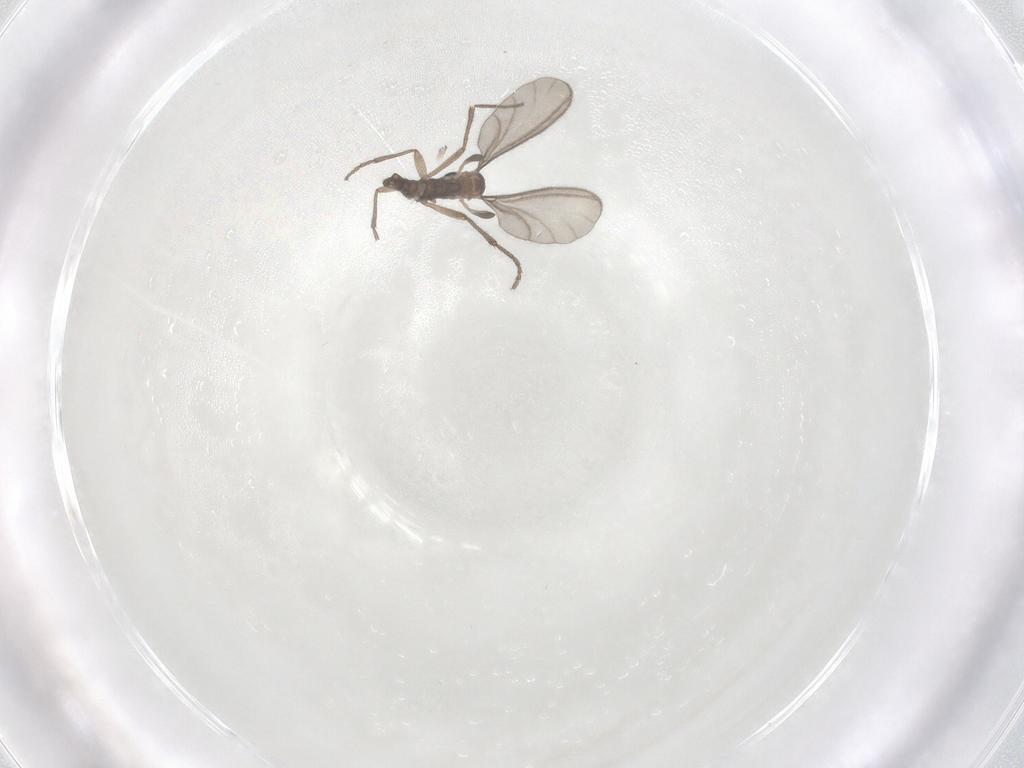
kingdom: Animalia
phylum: Arthropoda
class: Insecta
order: Diptera
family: Sciaridae
